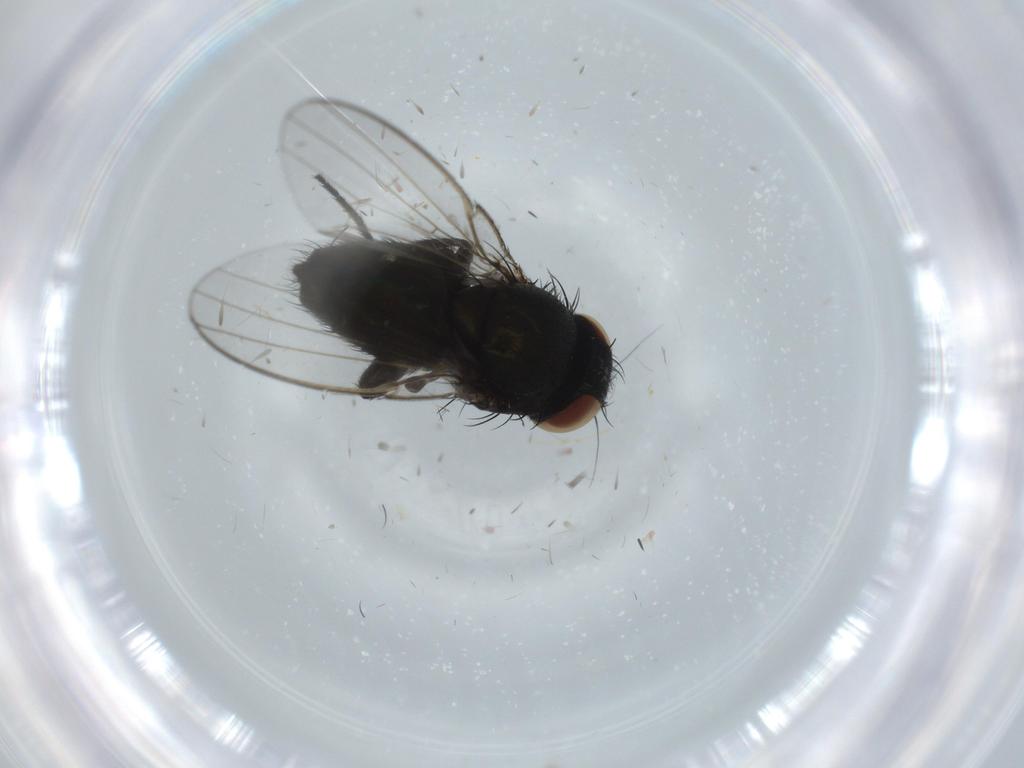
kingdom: Animalia
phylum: Arthropoda
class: Insecta
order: Diptera
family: Milichiidae
